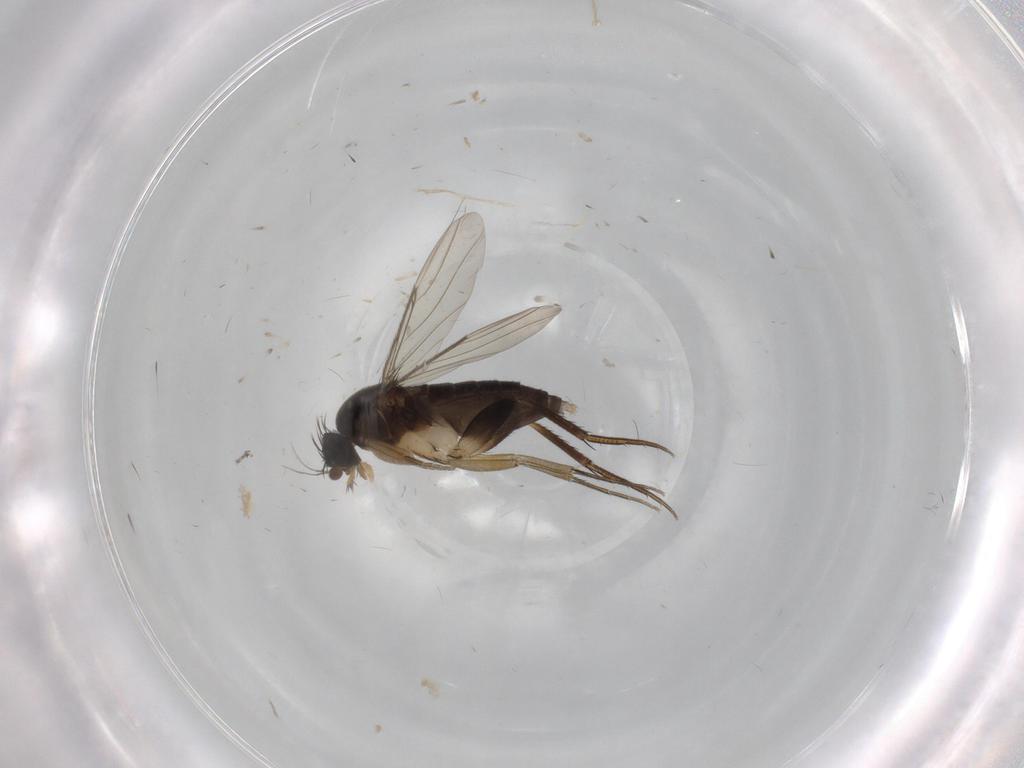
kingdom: Animalia
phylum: Arthropoda
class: Insecta
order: Diptera
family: Phoridae
